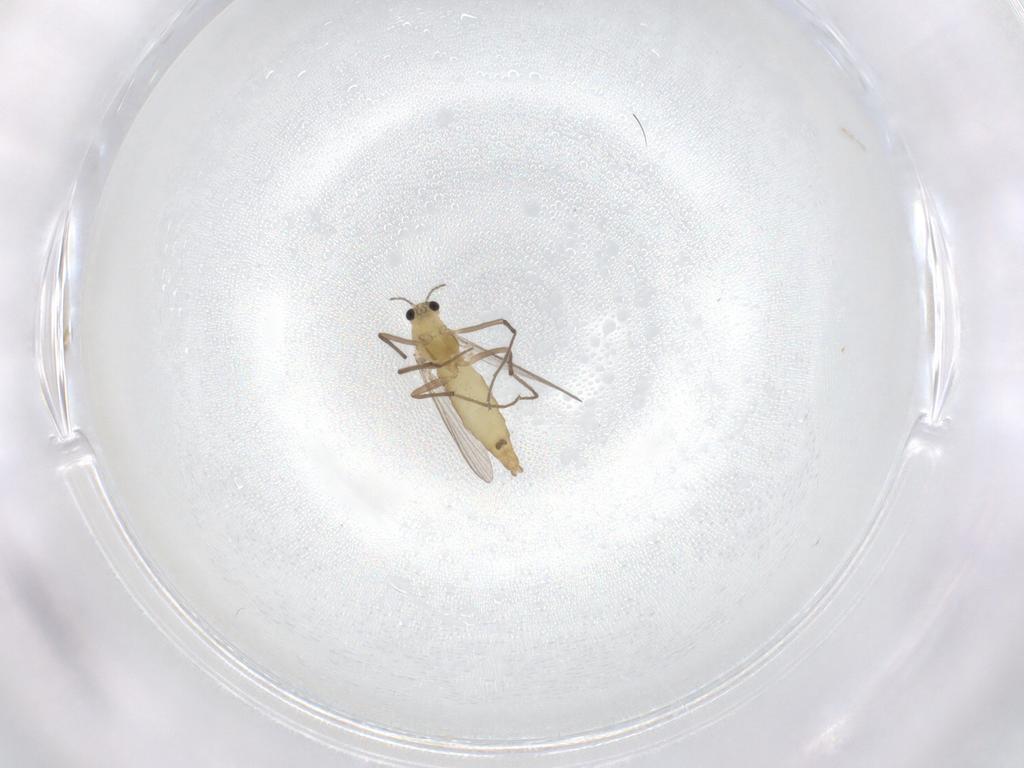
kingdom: Animalia
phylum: Arthropoda
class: Insecta
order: Diptera
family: Chironomidae
